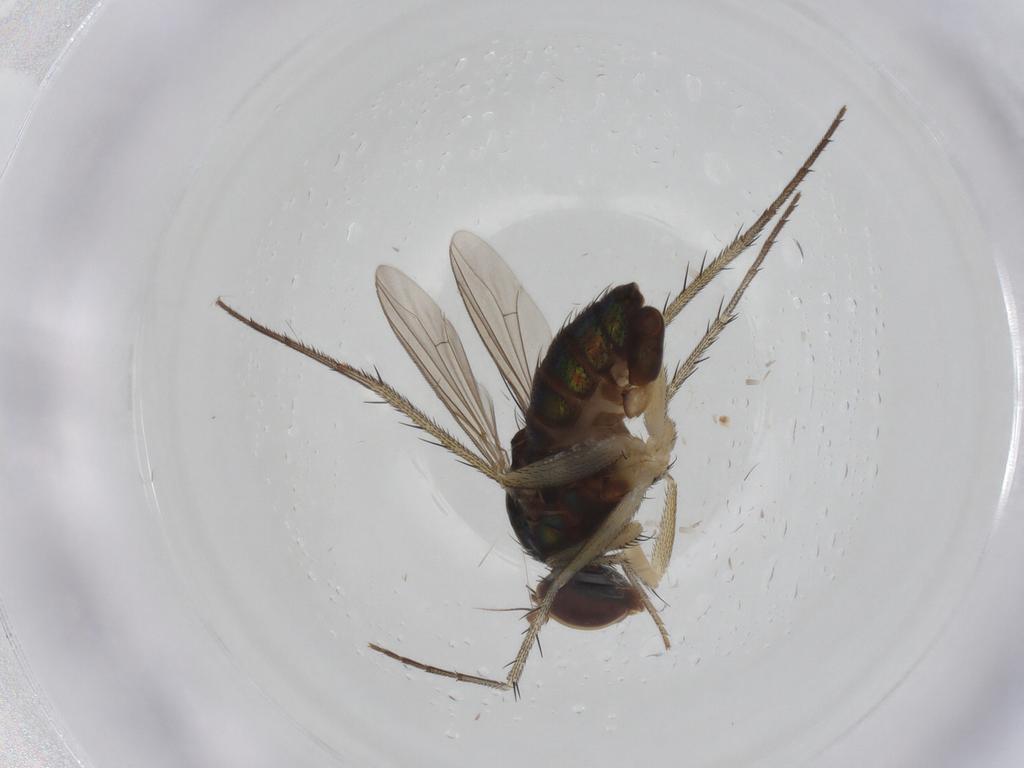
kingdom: Animalia
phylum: Arthropoda
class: Insecta
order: Diptera
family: Dolichopodidae
